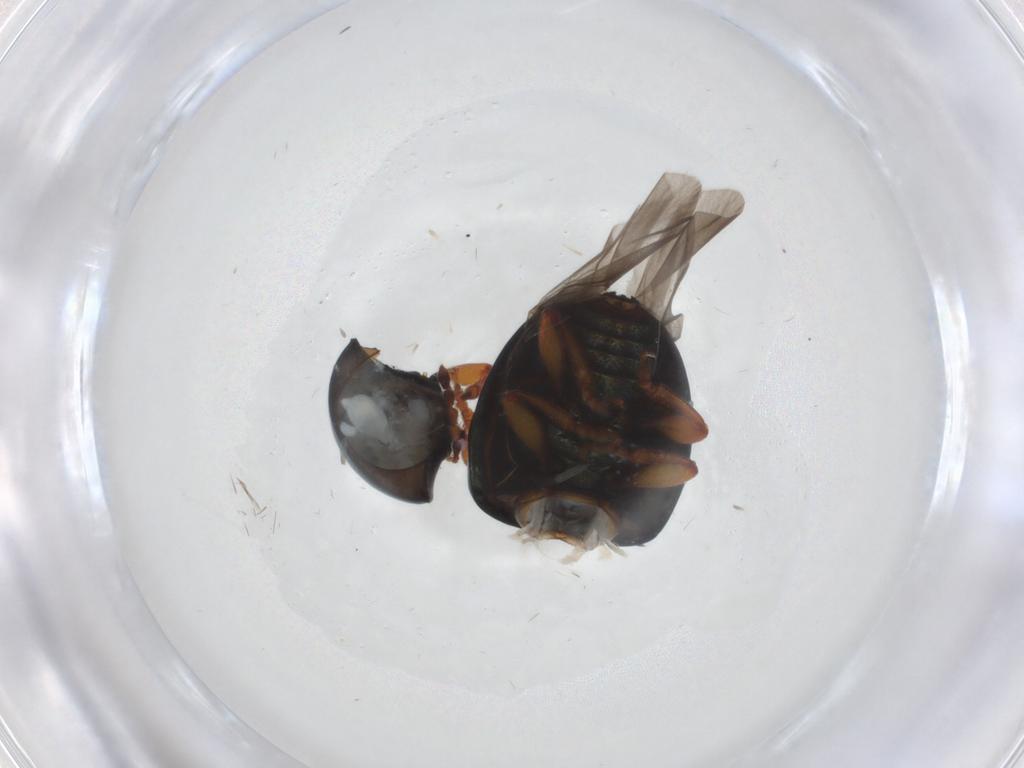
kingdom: Animalia
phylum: Arthropoda
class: Insecta
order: Coleoptera
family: Chrysomelidae
